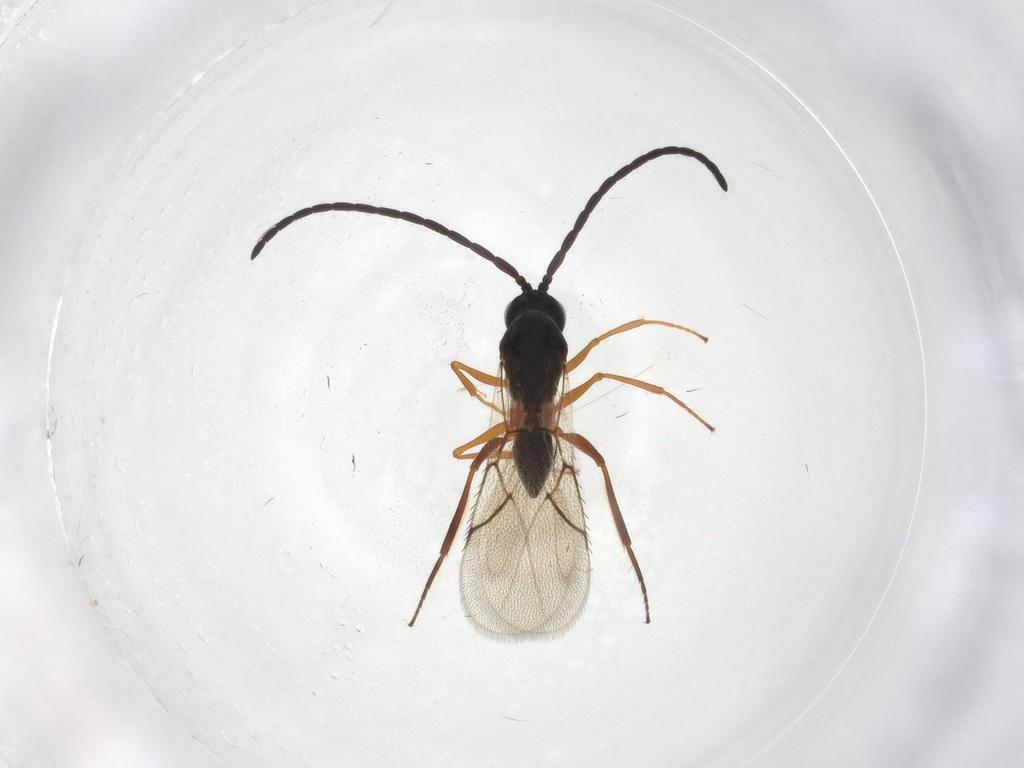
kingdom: Animalia
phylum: Arthropoda
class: Insecta
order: Hymenoptera
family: Figitidae
